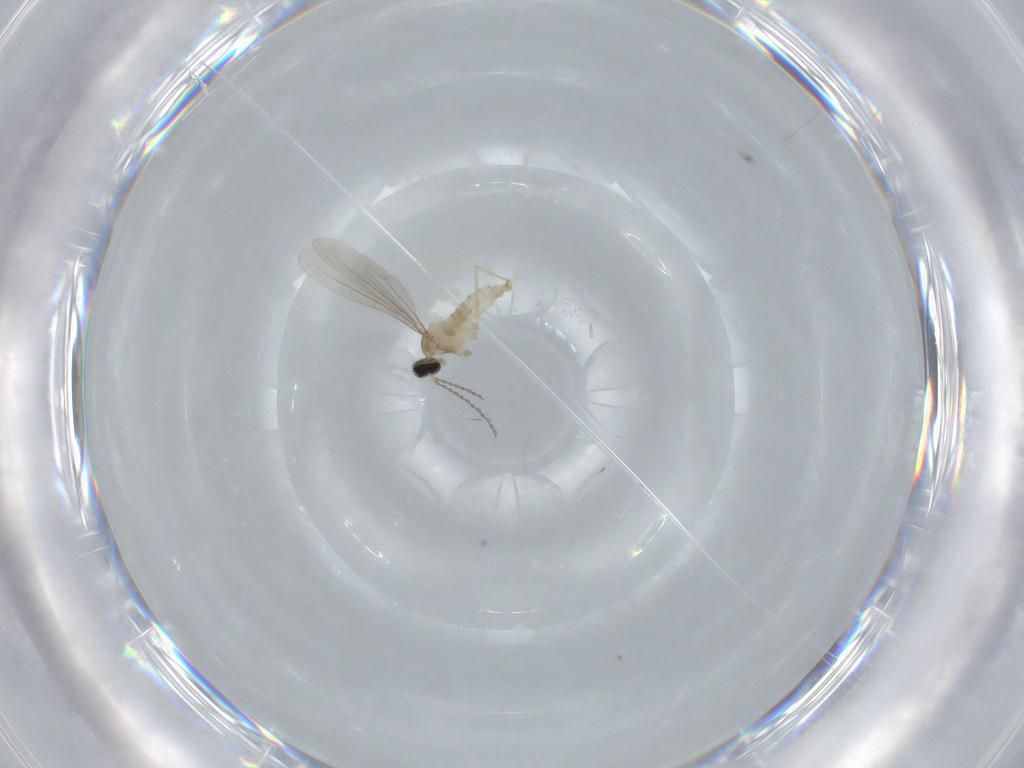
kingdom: Animalia
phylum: Arthropoda
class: Insecta
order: Diptera
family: Cecidomyiidae
